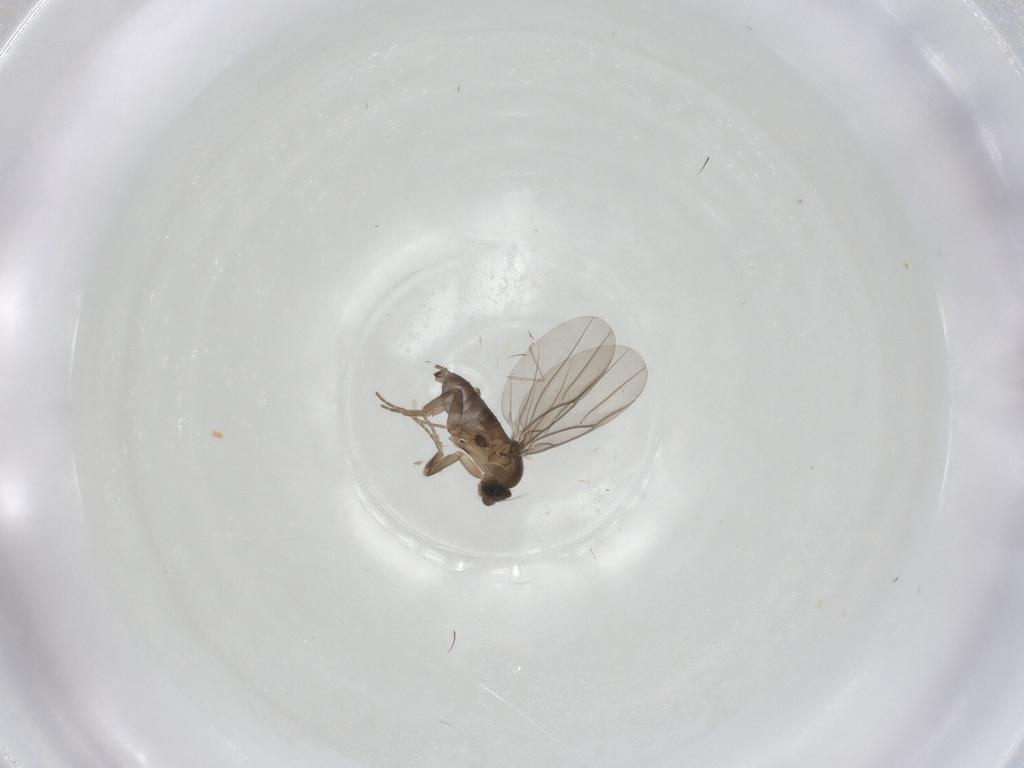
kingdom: Animalia
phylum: Arthropoda
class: Insecta
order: Diptera
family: Phoridae
